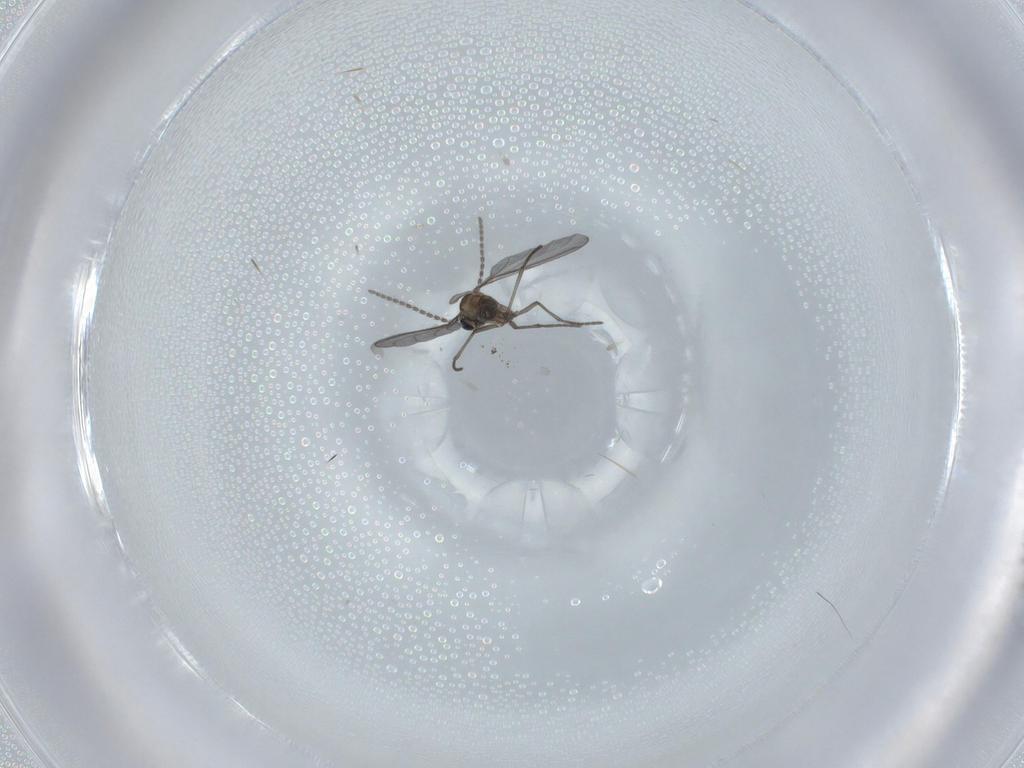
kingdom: Animalia
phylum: Arthropoda
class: Insecta
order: Diptera
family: Sciaridae
